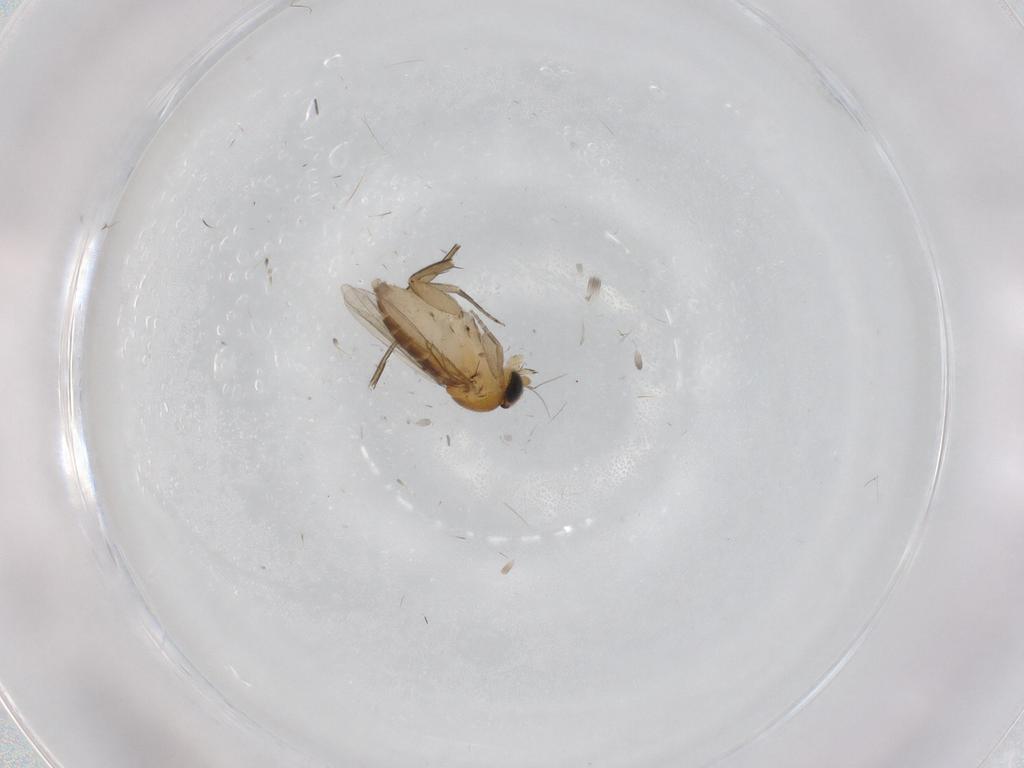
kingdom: Animalia
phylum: Arthropoda
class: Insecta
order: Diptera
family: Phoridae
